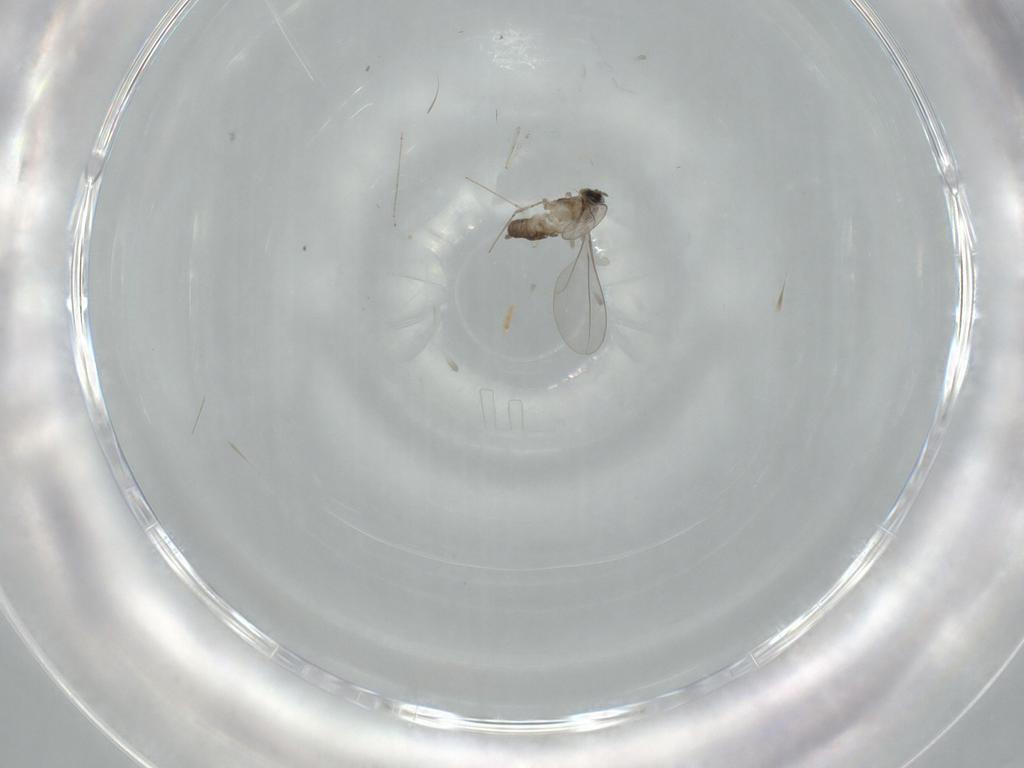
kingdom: Animalia
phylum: Arthropoda
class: Insecta
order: Diptera
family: Cecidomyiidae
